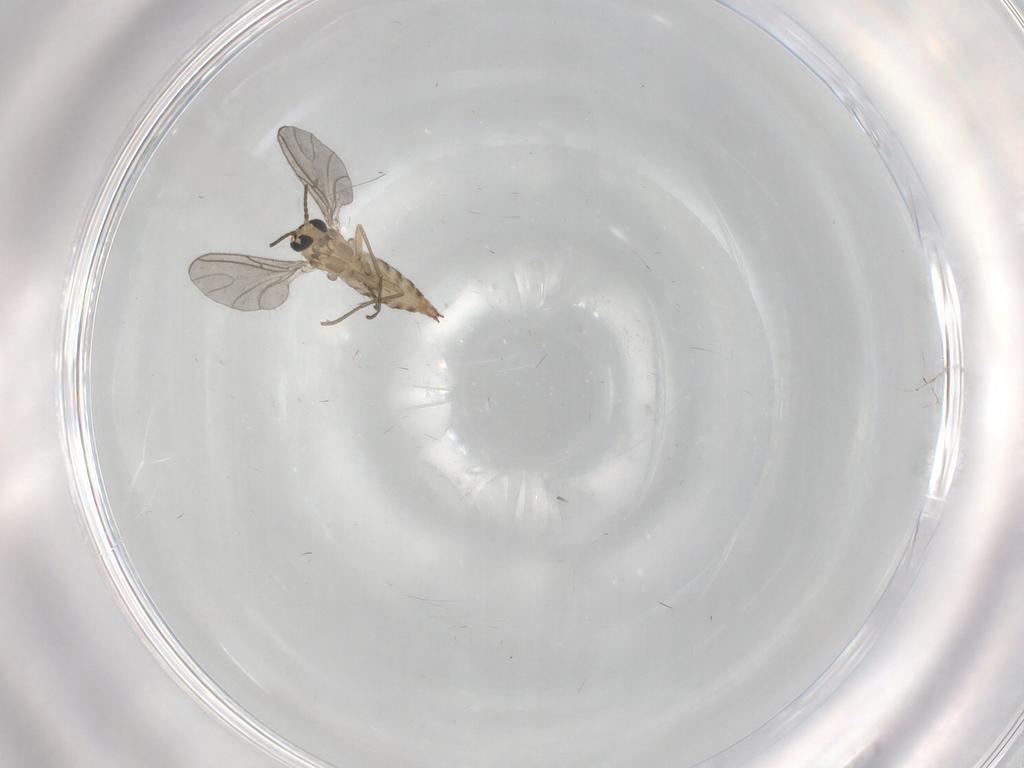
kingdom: Animalia
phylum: Arthropoda
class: Insecta
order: Diptera
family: Sciaridae
